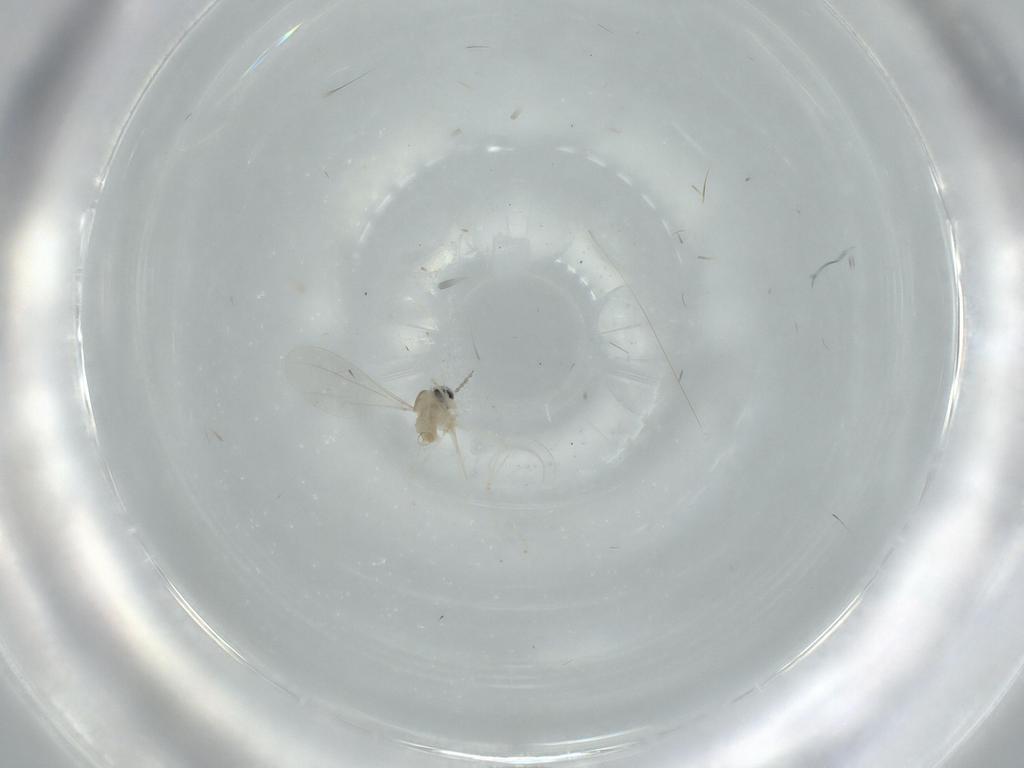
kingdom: Animalia
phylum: Arthropoda
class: Insecta
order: Diptera
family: Cecidomyiidae
